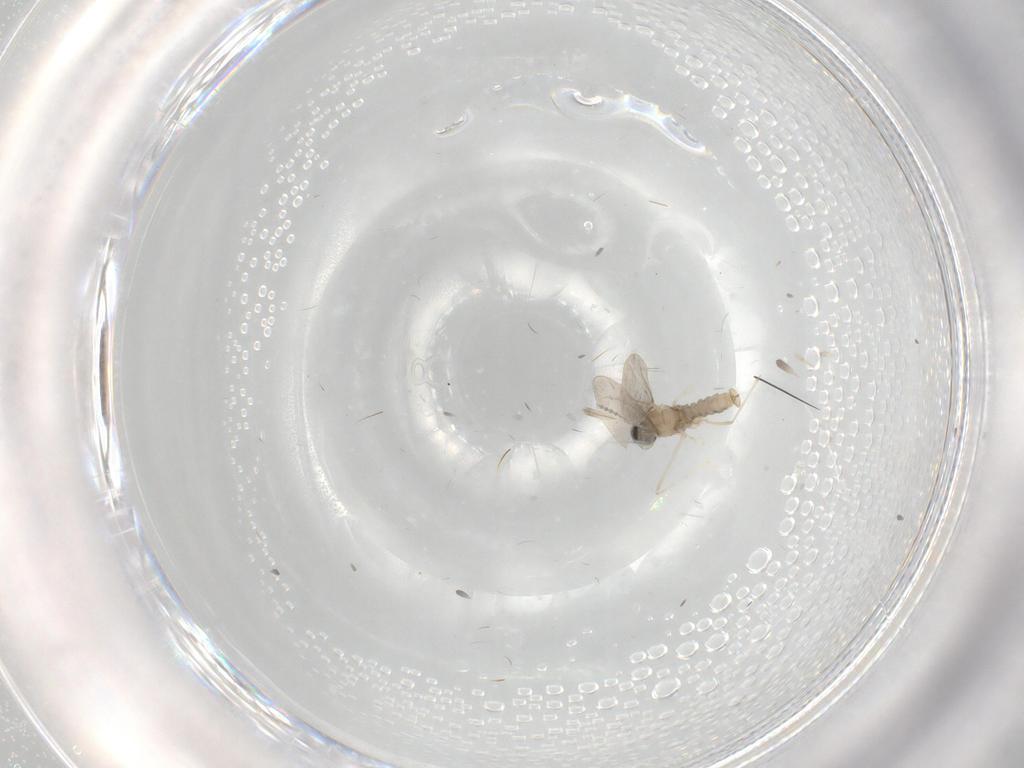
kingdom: Animalia
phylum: Arthropoda
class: Insecta
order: Diptera
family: Cecidomyiidae
